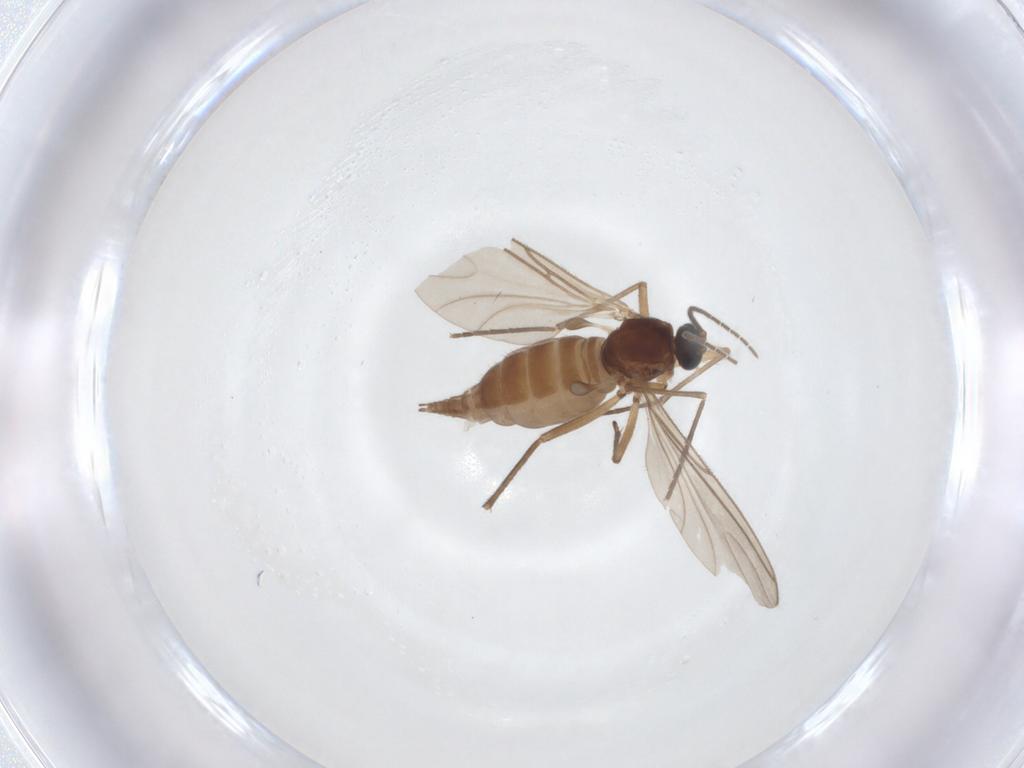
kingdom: Animalia
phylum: Arthropoda
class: Insecta
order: Diptera
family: Sciaridae
